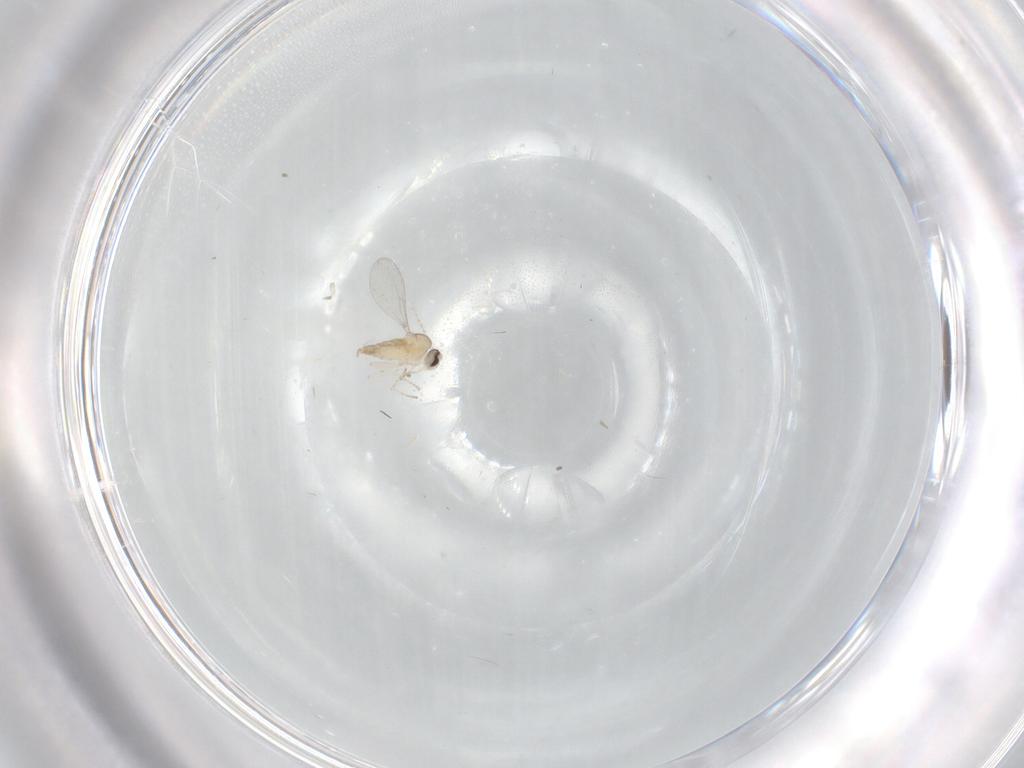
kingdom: Animalia
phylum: Arthropoda
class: Insecta
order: Diptera
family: Cecidomyiidae
